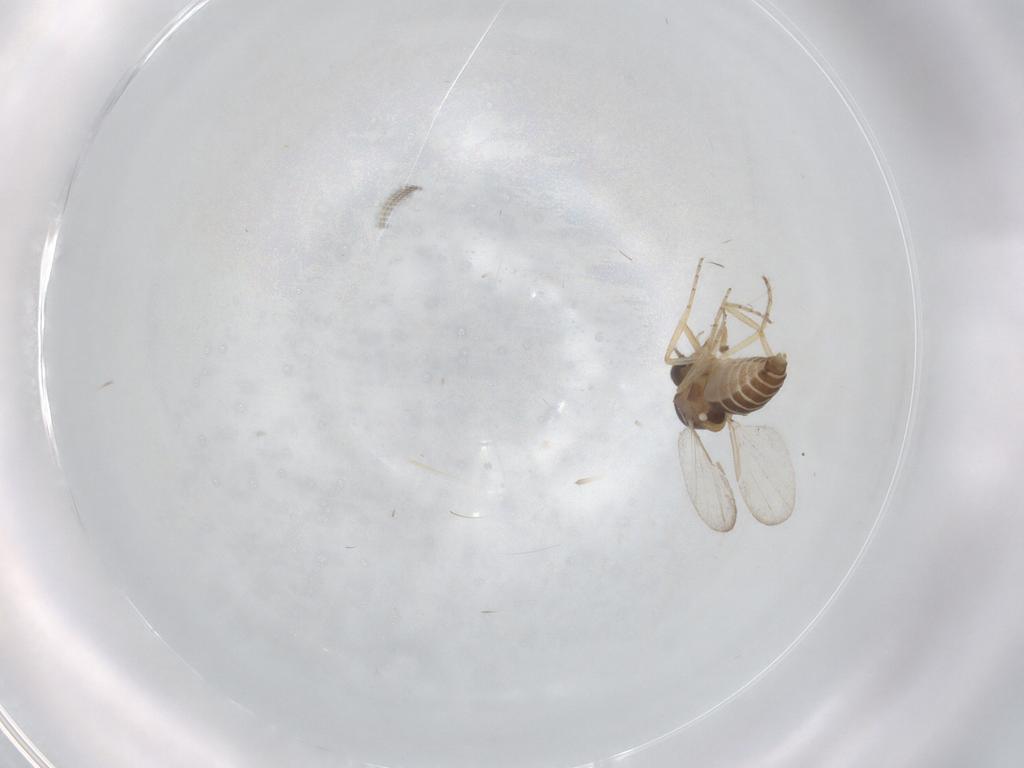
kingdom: Animalia
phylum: Arthropoda
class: Insecta
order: Diptera
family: Ceratopogonidae
